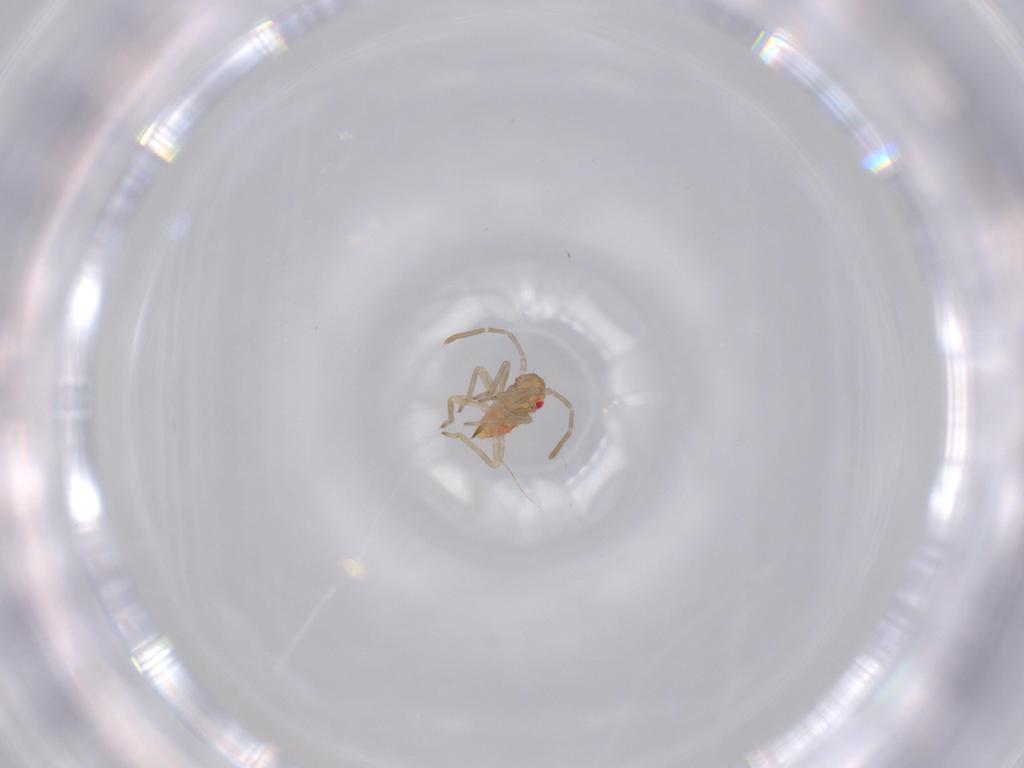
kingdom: Animalia
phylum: Arthropoda
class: Insecta
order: Hemiptera
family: Miridae
